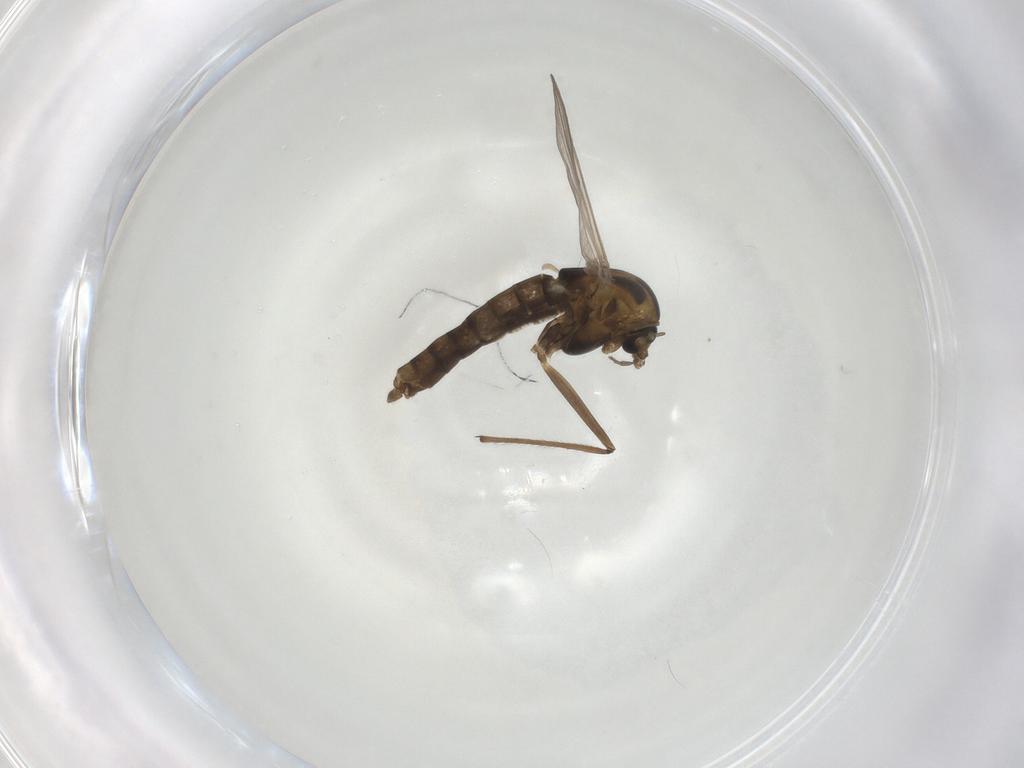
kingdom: Animalia
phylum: Arthropoda
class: Insecta
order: Diptera
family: Chironomidae
